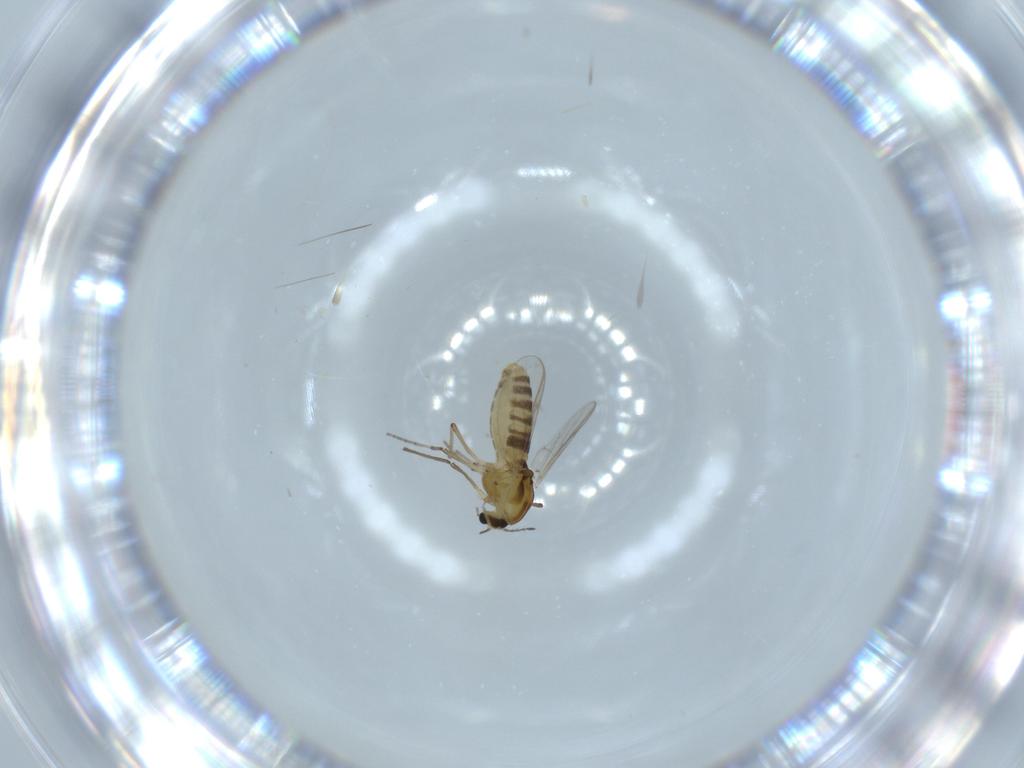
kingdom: Animalia
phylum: Arthropoda
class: Insecta
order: Diptera
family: Chironomidae
